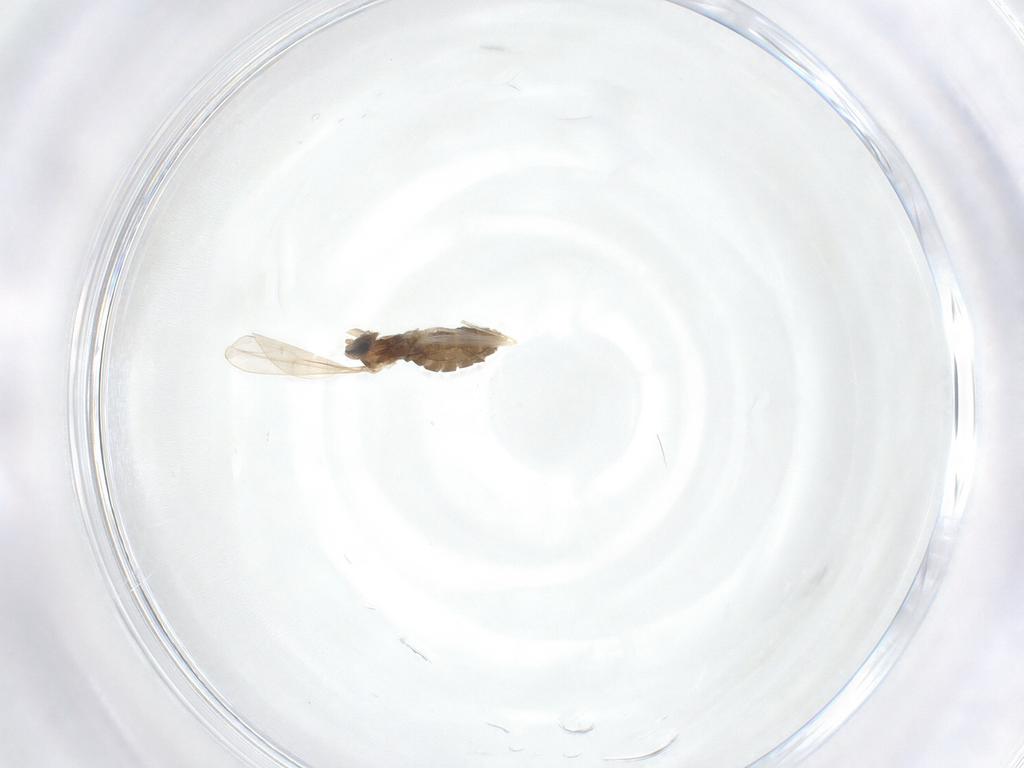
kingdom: Animalia
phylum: Arthropoda
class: Insecta
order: Diptera
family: Cecidomyiidae
